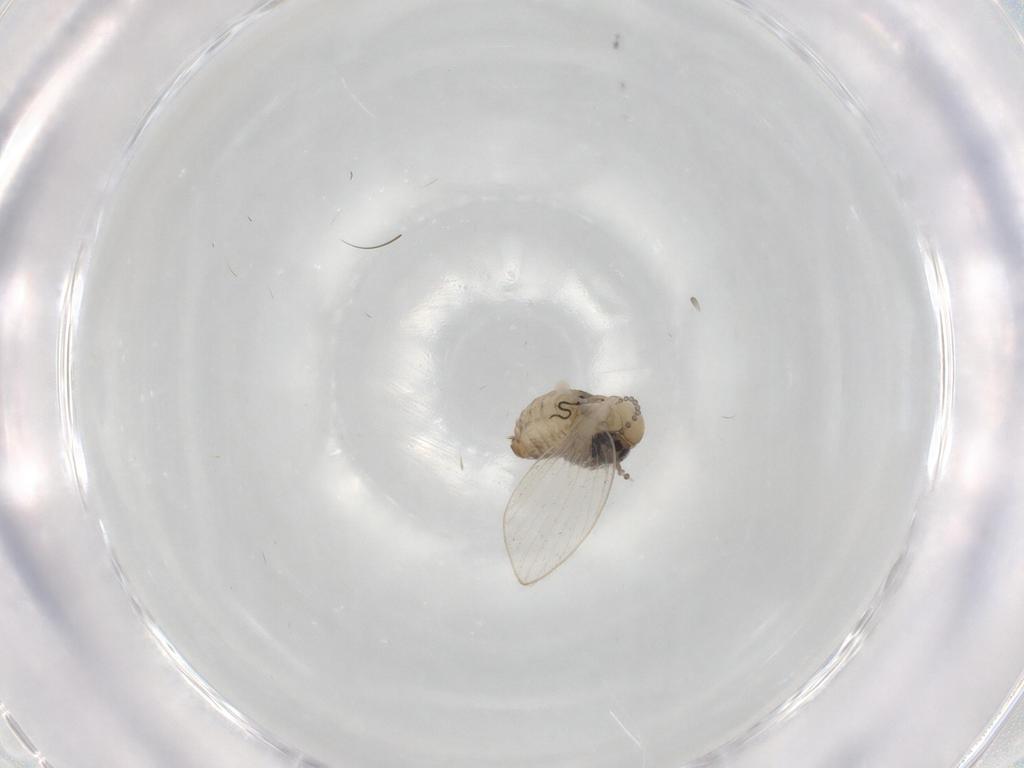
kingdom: Animalia
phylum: Arthropoda
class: Insecta
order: Diptera
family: Psychodidae
